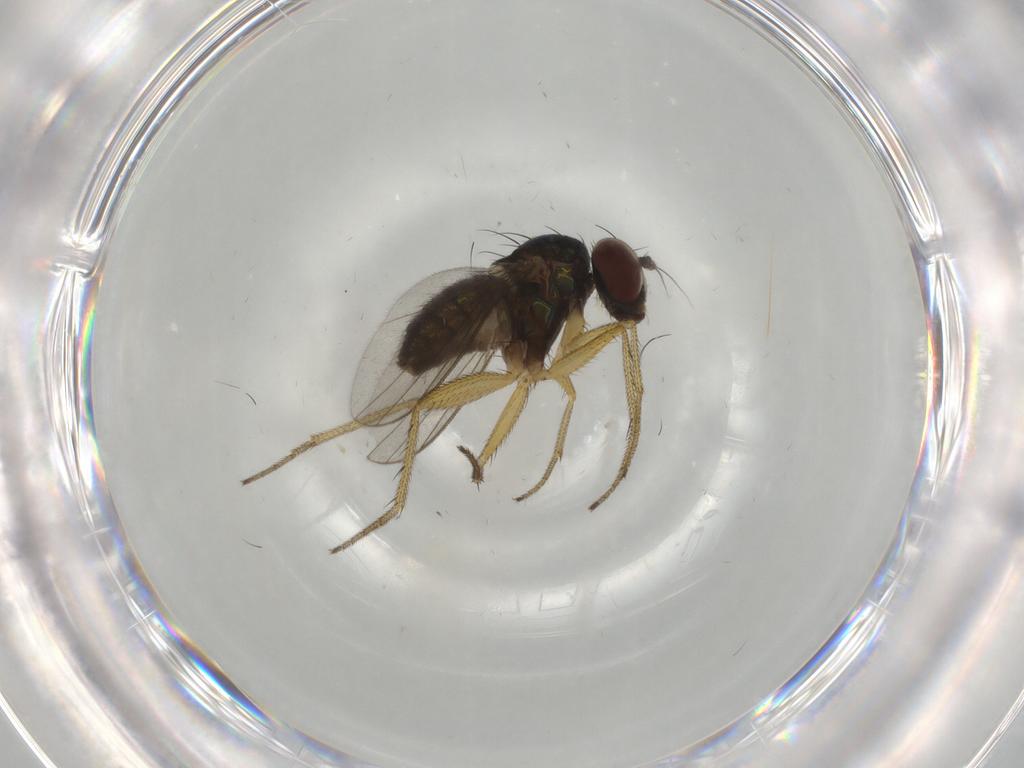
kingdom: Animalia
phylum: Arthropoda
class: Insecta
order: Diptera
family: Dolichopodidae
